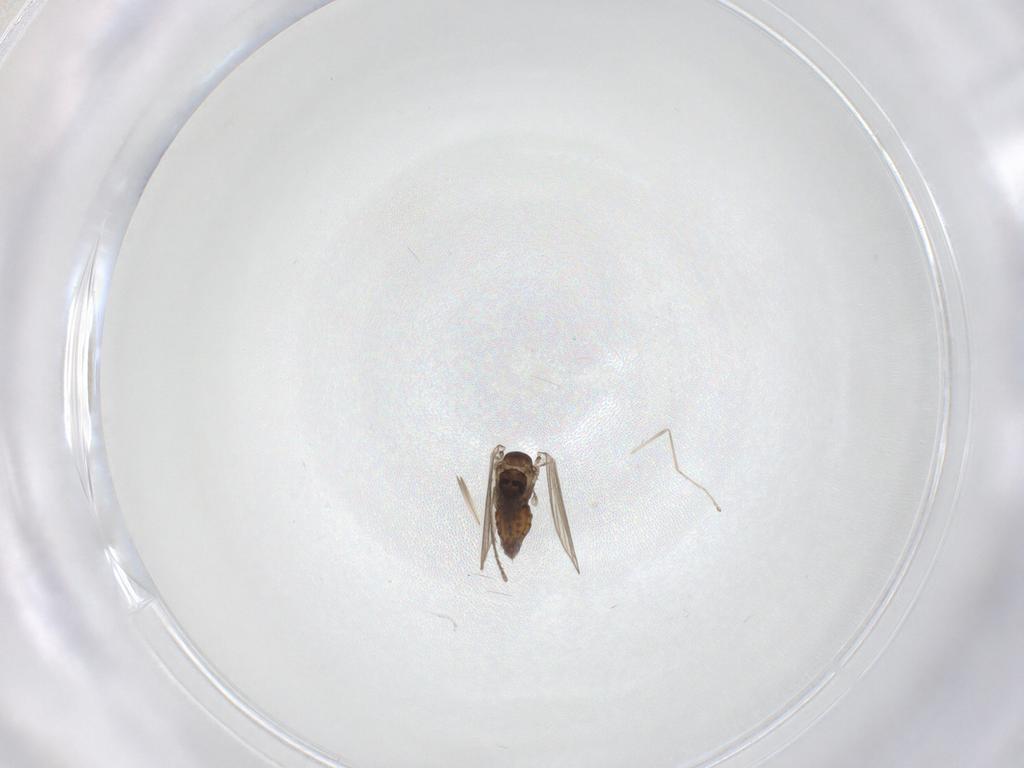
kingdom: Animalia
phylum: Arthropoda
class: Insecta
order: Diptera
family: Psychodidae
